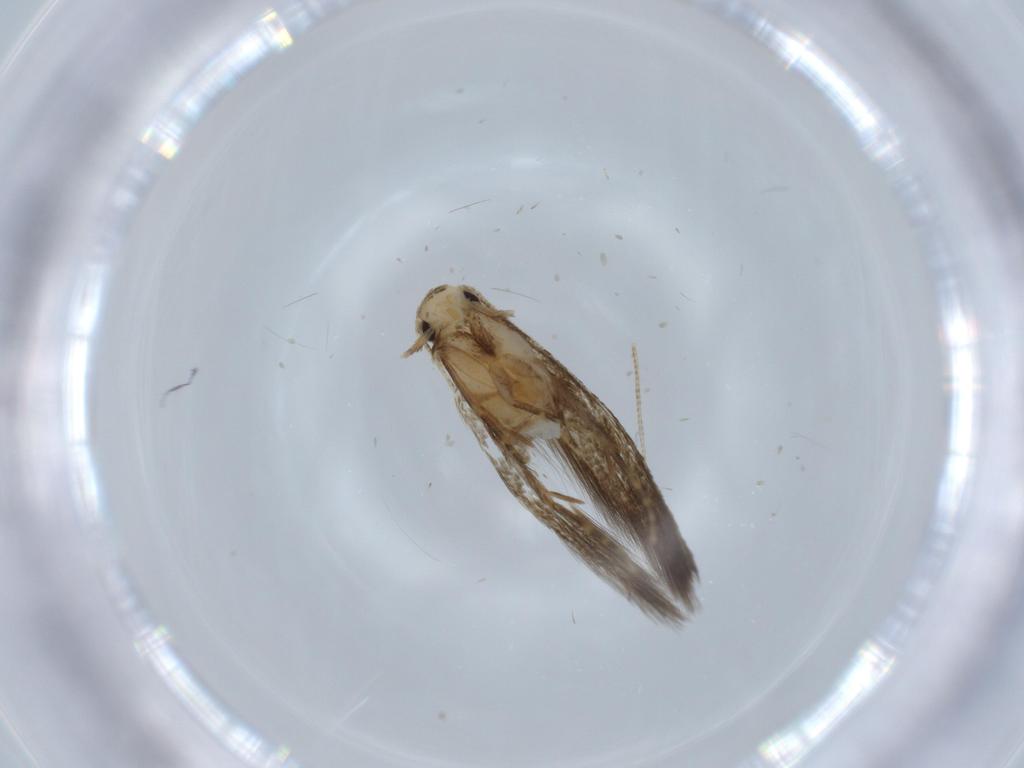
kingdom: Animalia
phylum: Arthropoda
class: Insecta
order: Lepidoptera
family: Tineidae
